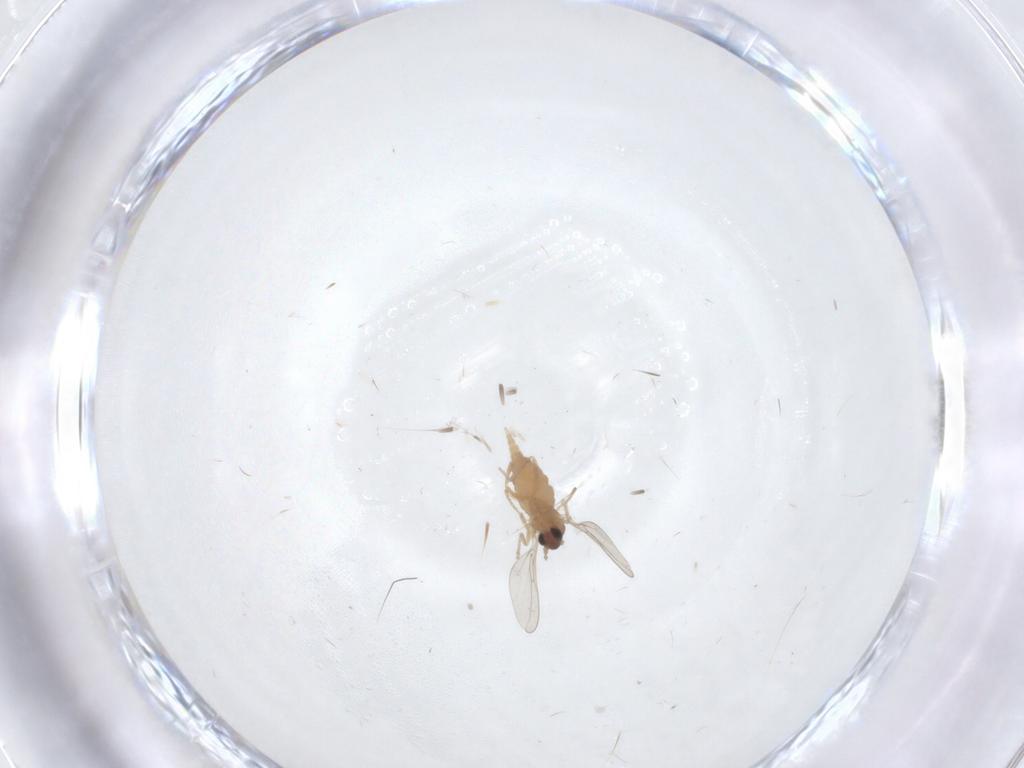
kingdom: Animalia
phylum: Arthropoda
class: Insecta
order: Diptera
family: Cecidomyiidae
